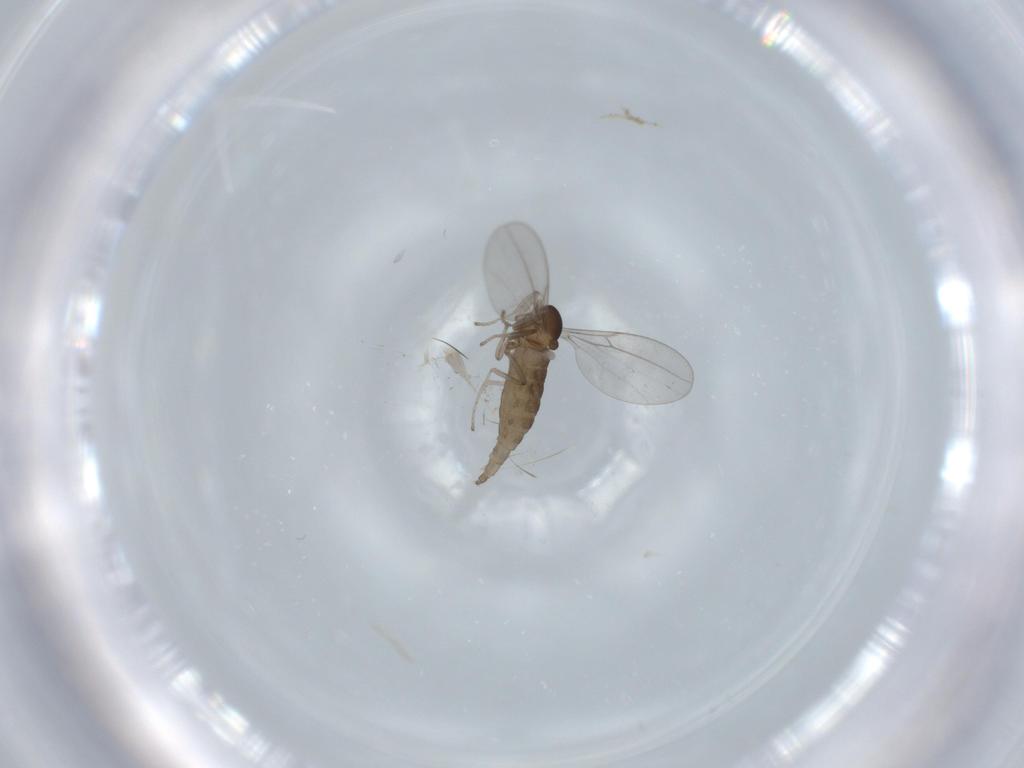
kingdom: Animalia
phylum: Arthropoda
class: Insecta
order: Diptera
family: Cecidomyiidae
